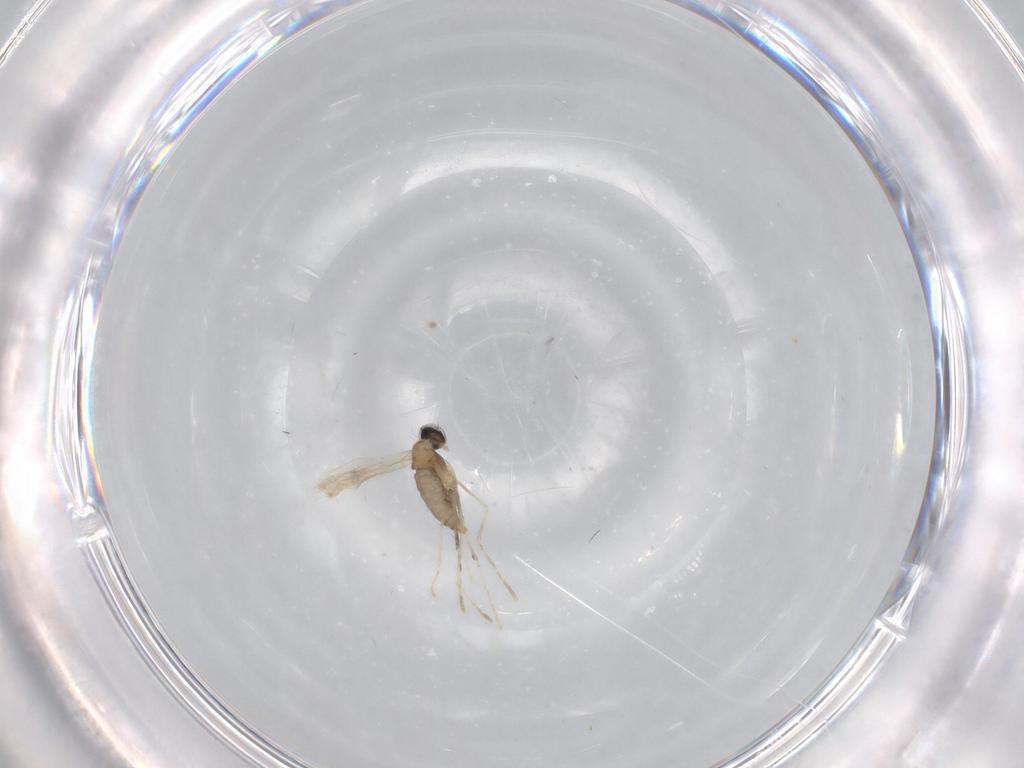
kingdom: Animalia
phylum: Arthropoda
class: Insecta
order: Diptera
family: Cecidomyiidae
